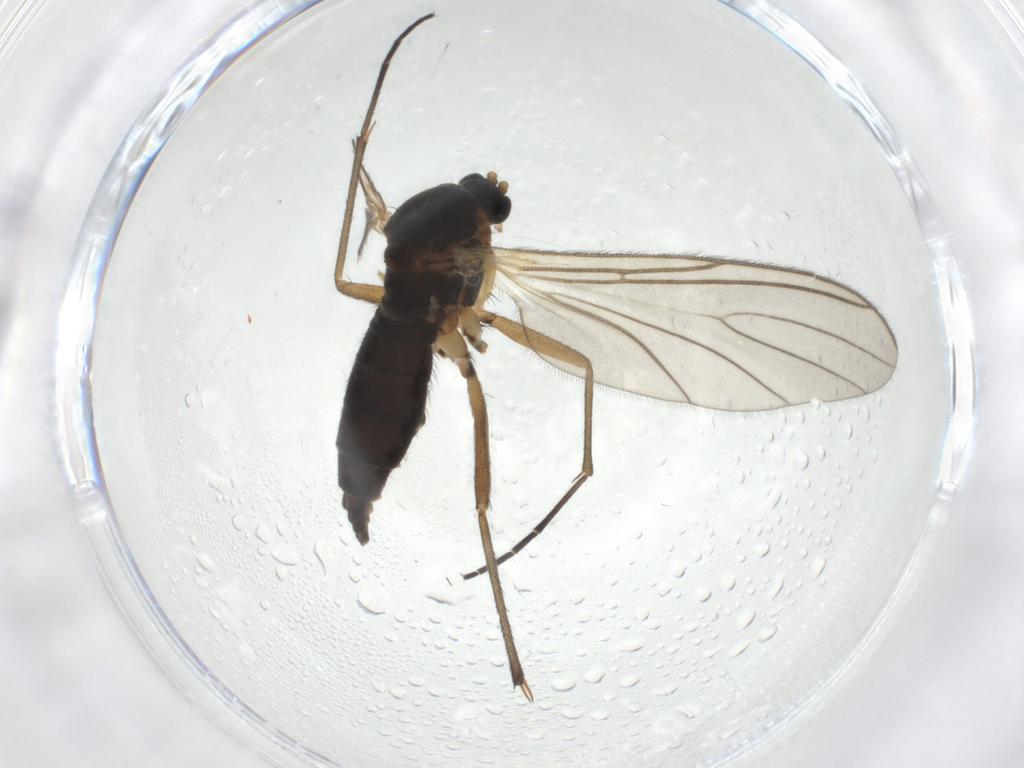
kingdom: Animalia
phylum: Arthropoda
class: Insecta
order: Diptera
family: Sciaridae
